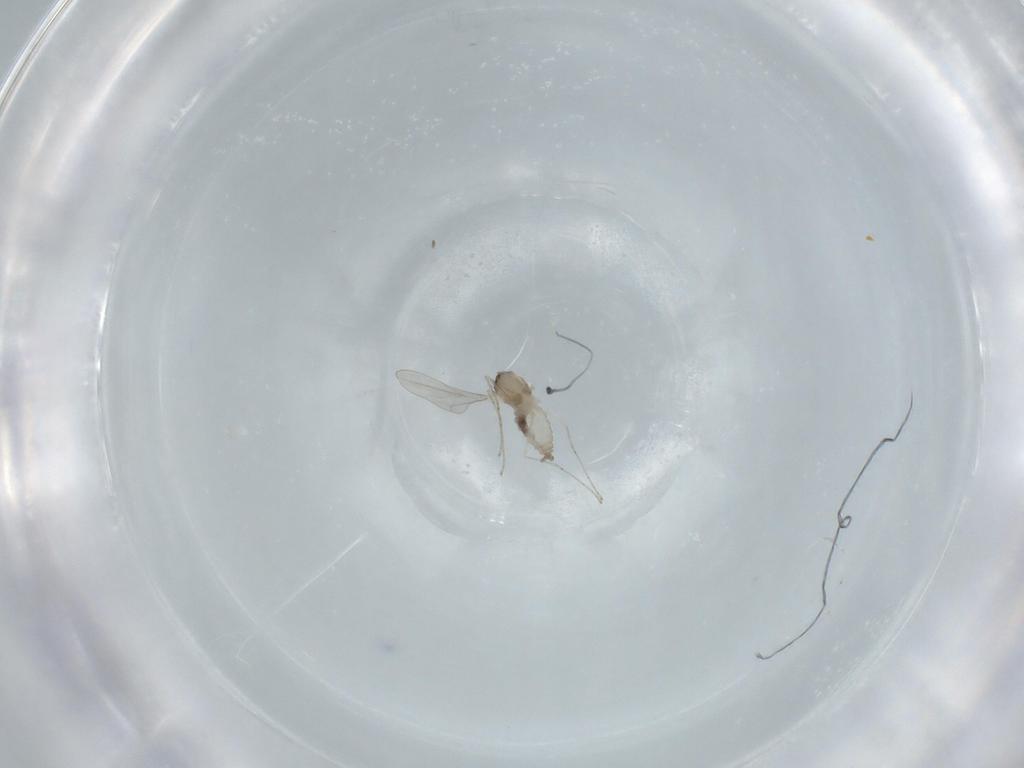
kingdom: Animalia
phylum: Arthropoda
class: Insecta
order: Diptera
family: Cecidomyiidae
